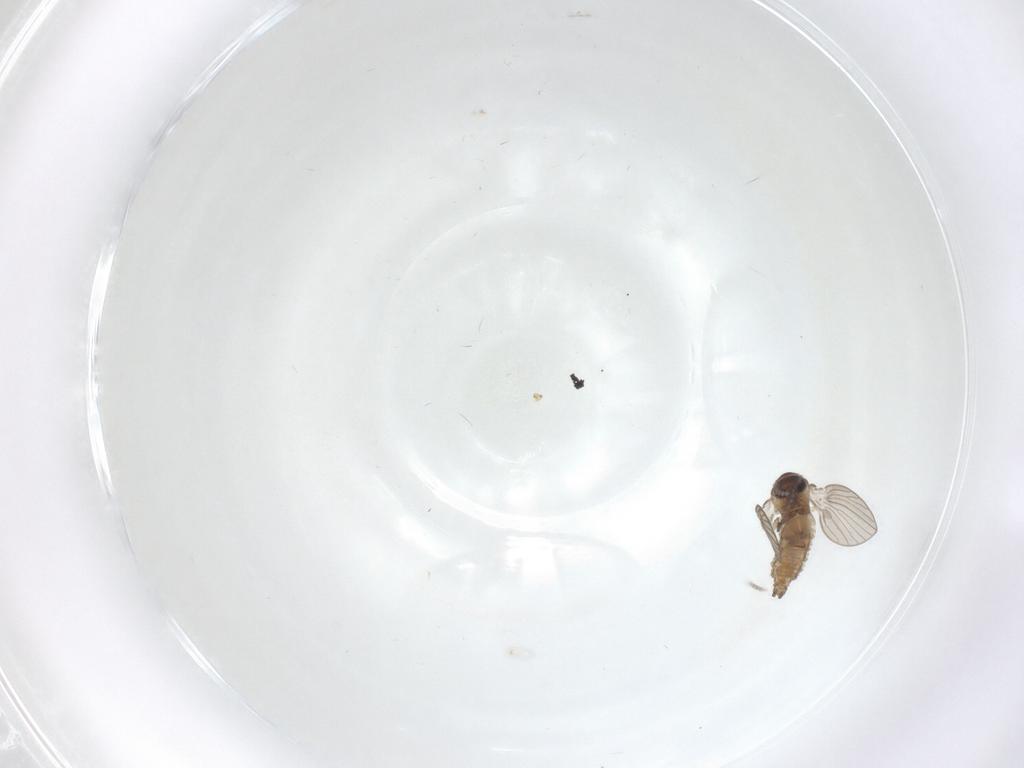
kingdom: Animalia
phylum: Arthropoda
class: Insecta
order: Diptera
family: Psychodidae
